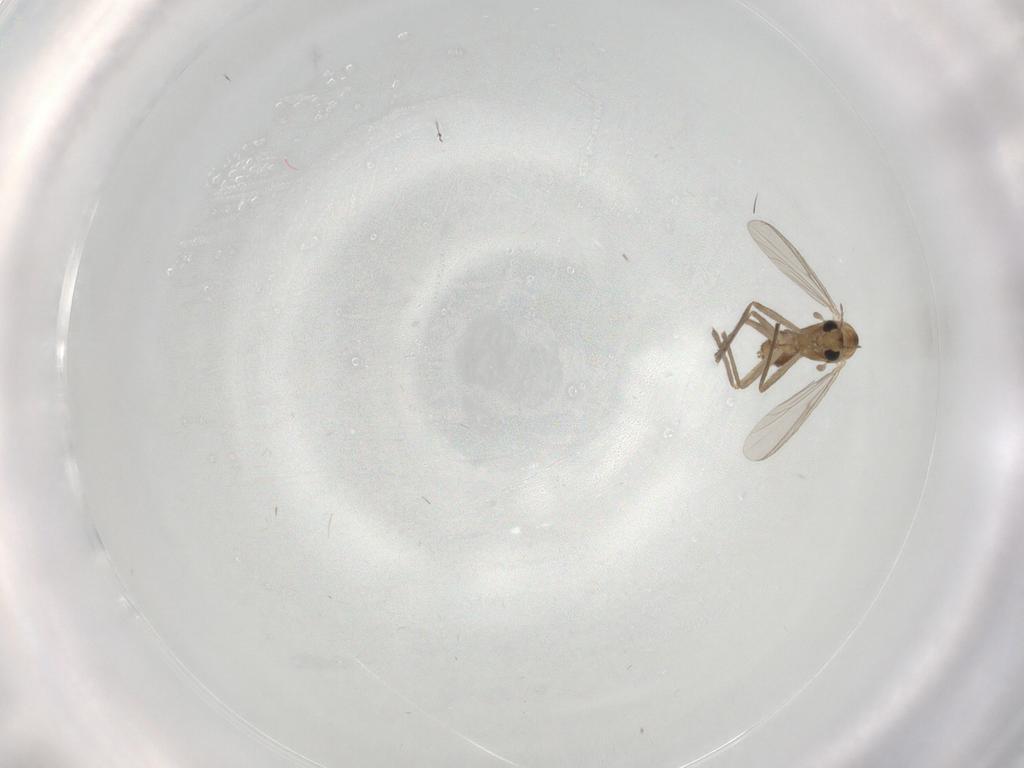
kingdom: Animalia
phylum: Arthropoda
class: Insecta
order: Diptera
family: Chironomidae
